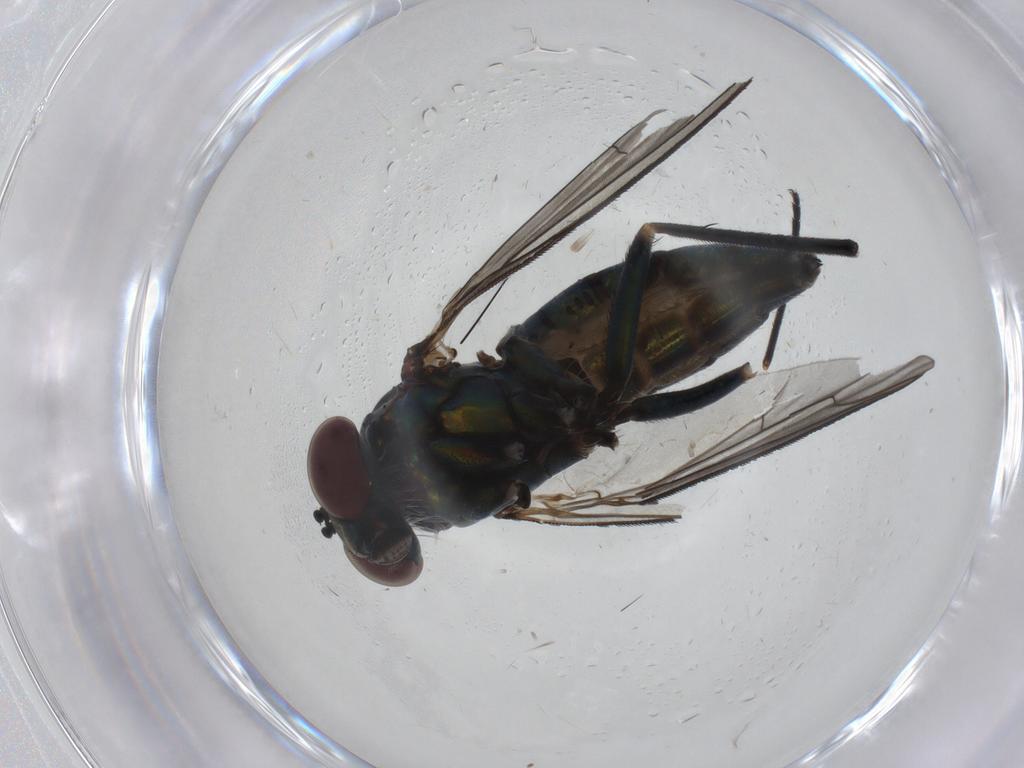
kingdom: Animalia
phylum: Arthropoda
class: Insecta
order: Diptera
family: Dolichopodidae
